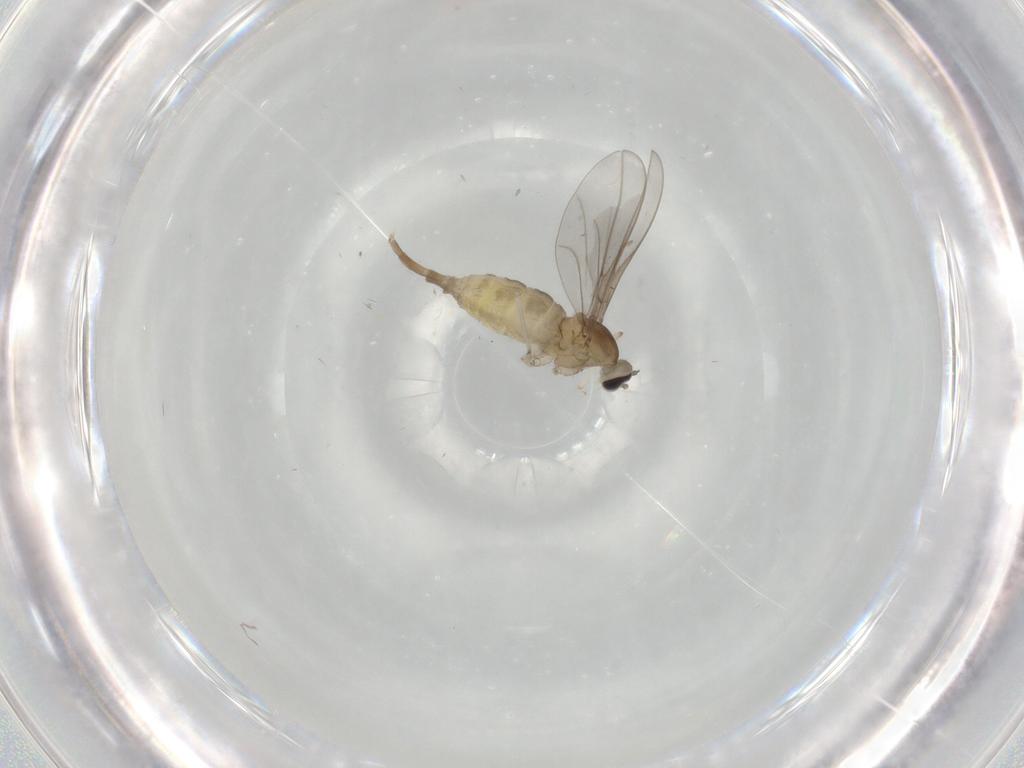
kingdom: Animalia
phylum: Arthropoda
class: Insecta
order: Diptera
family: Cecidomyiidae
